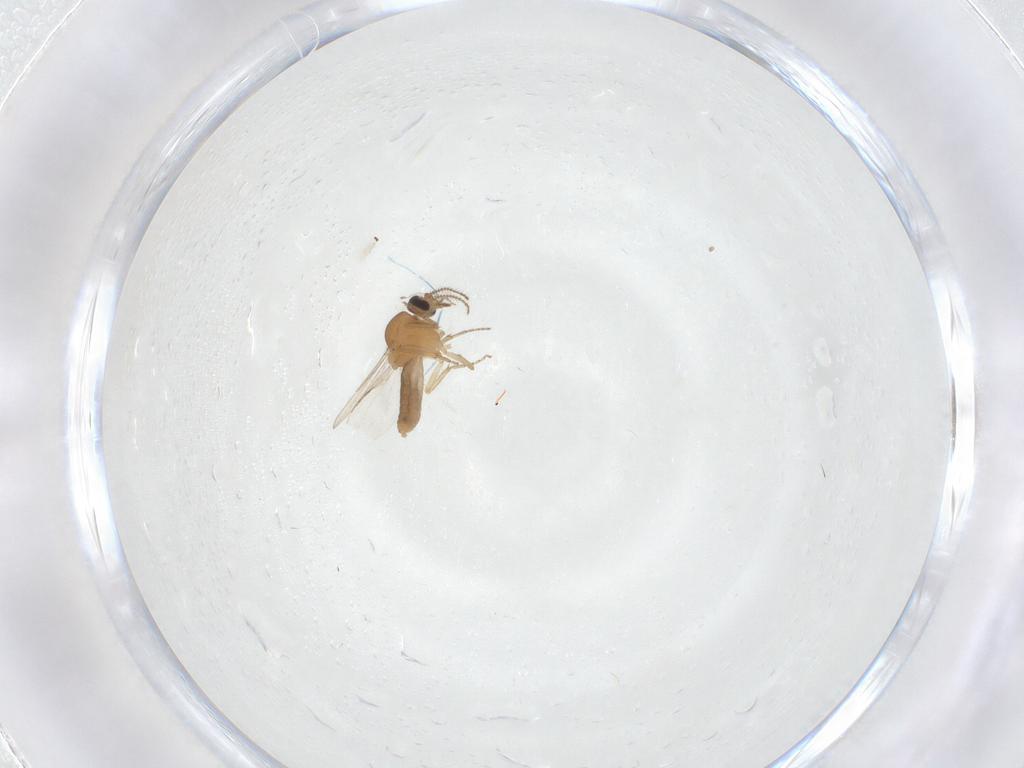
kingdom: Animalia
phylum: Arthropoda
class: Insecta
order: Diptera
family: Ceratopogonidae
